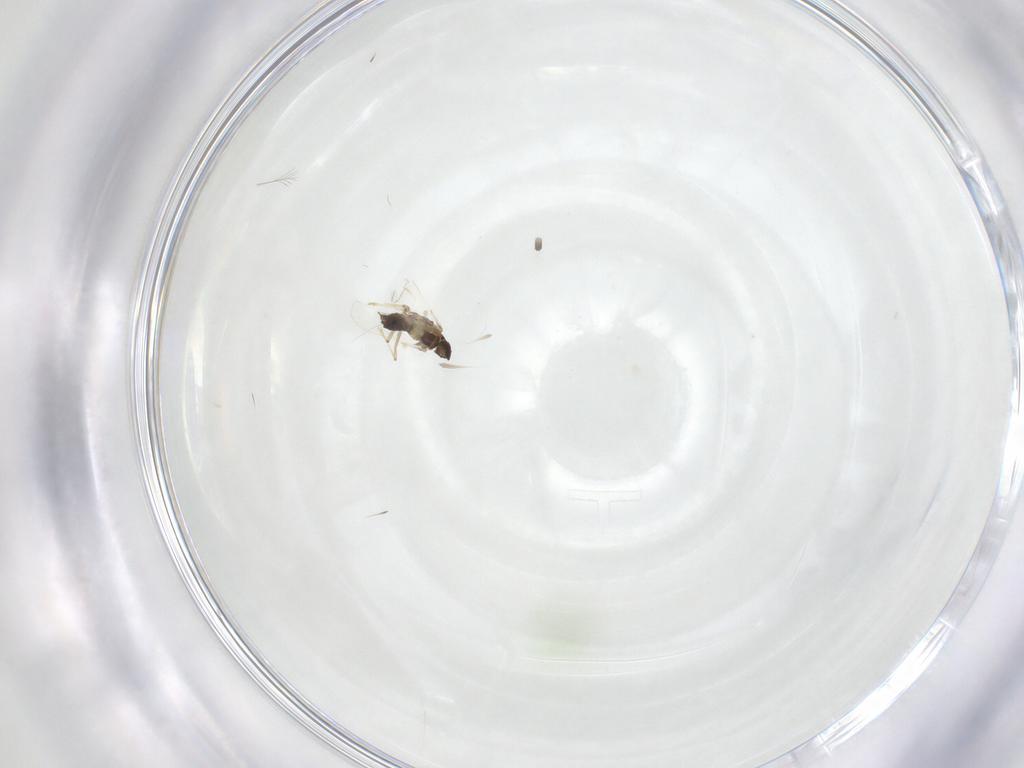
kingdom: Animalia
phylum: Arthropoda
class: Insecta
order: Diptera
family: Chironomidae
